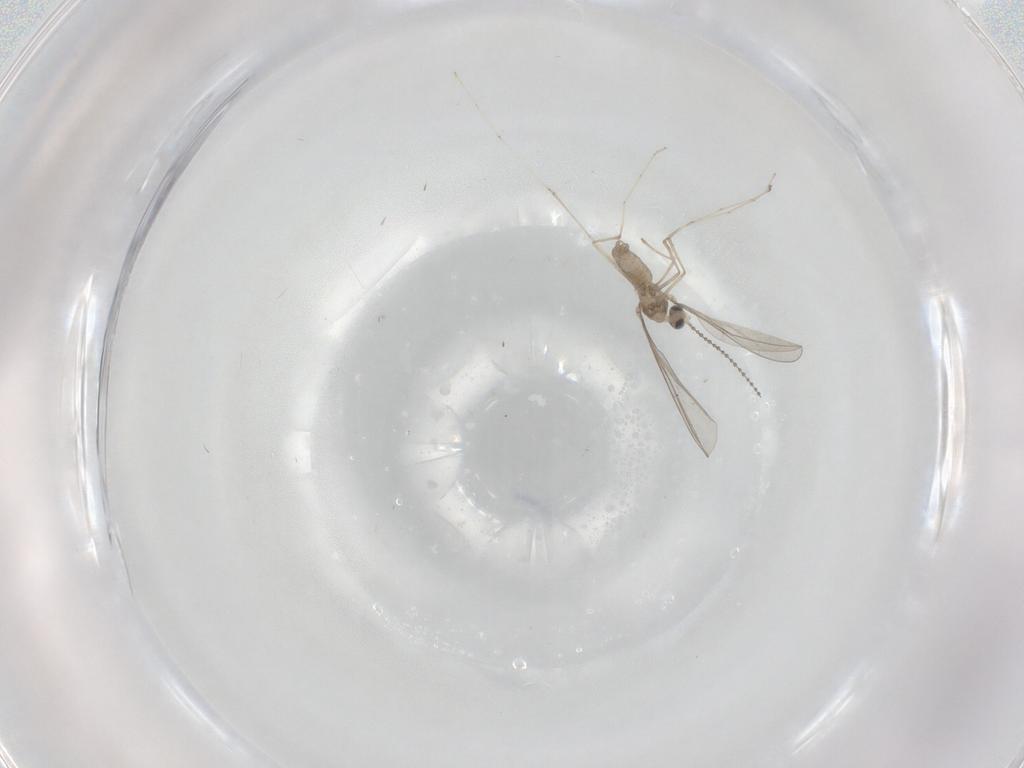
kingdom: Animalia
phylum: Arthropoda
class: Insecta
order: Diptera
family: Cecidomyiidae
